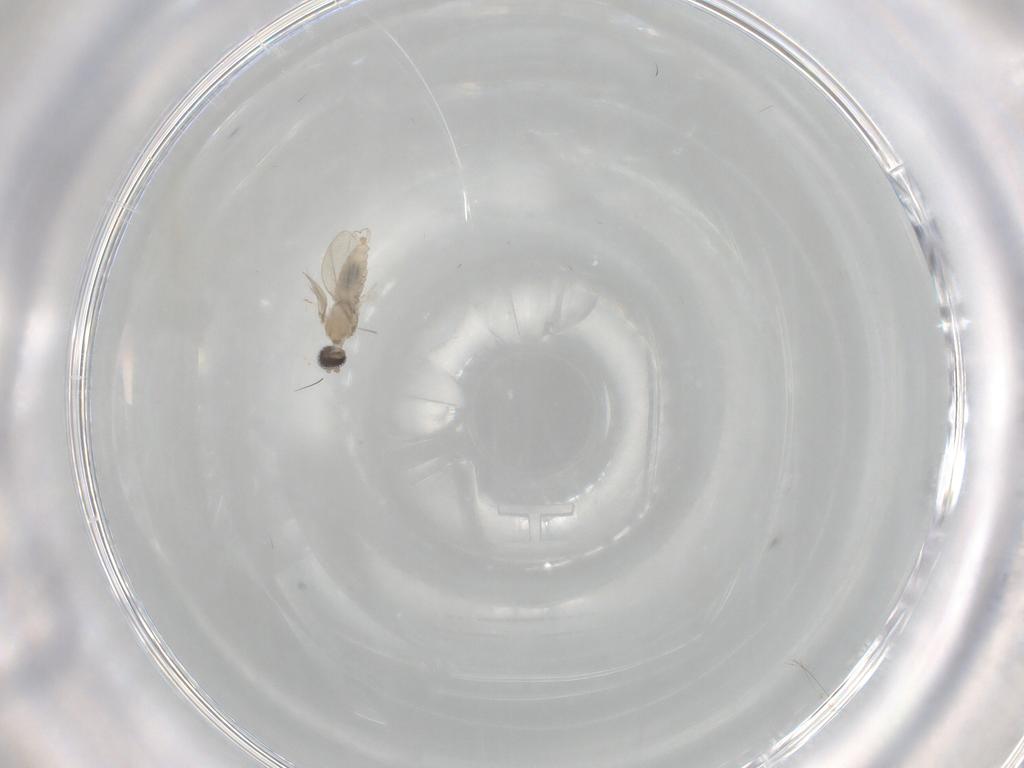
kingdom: Animalia
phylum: Arthropoda
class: Insecta
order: Diptera
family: Cecidomyiidae
